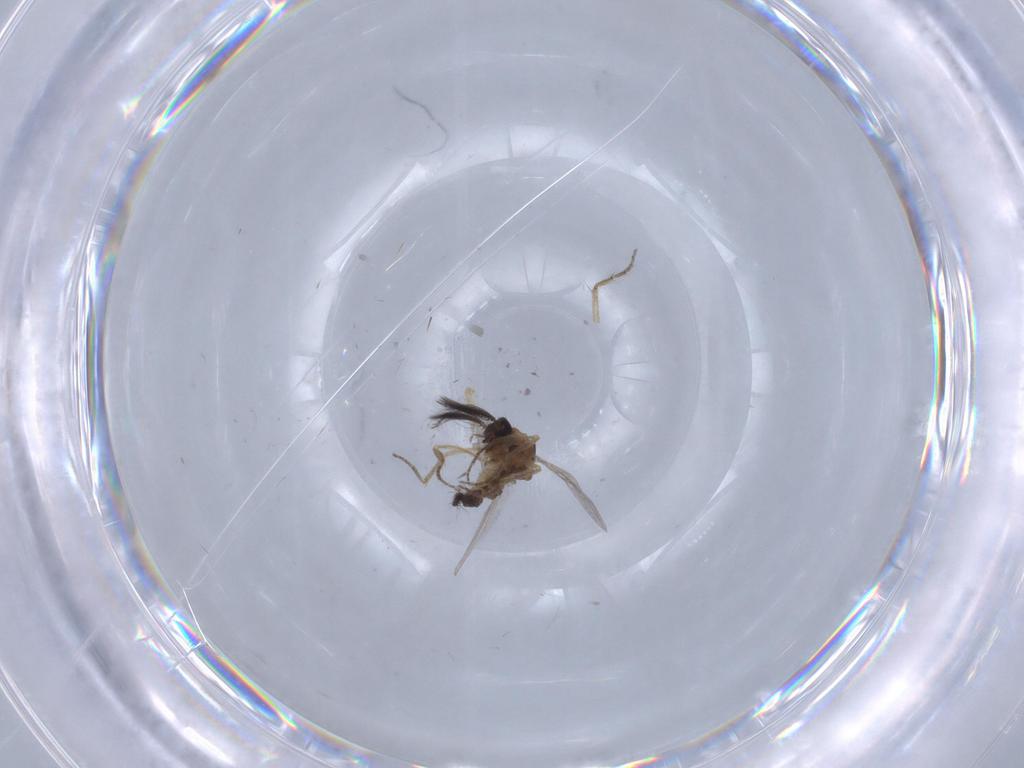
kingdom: Animalia
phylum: Arthropoda
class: Insecta
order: Diptera
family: Ceratopogonidae
